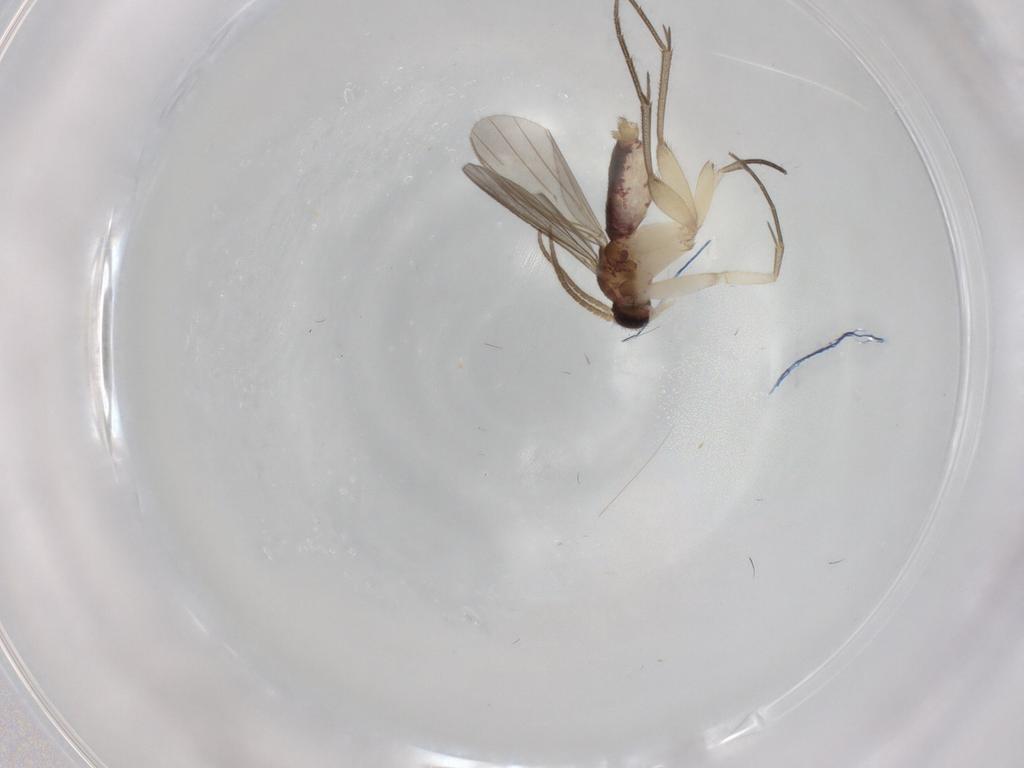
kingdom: Animalia
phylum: Arthropoda
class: Insecta
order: Diptera
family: Mycetophilidae
